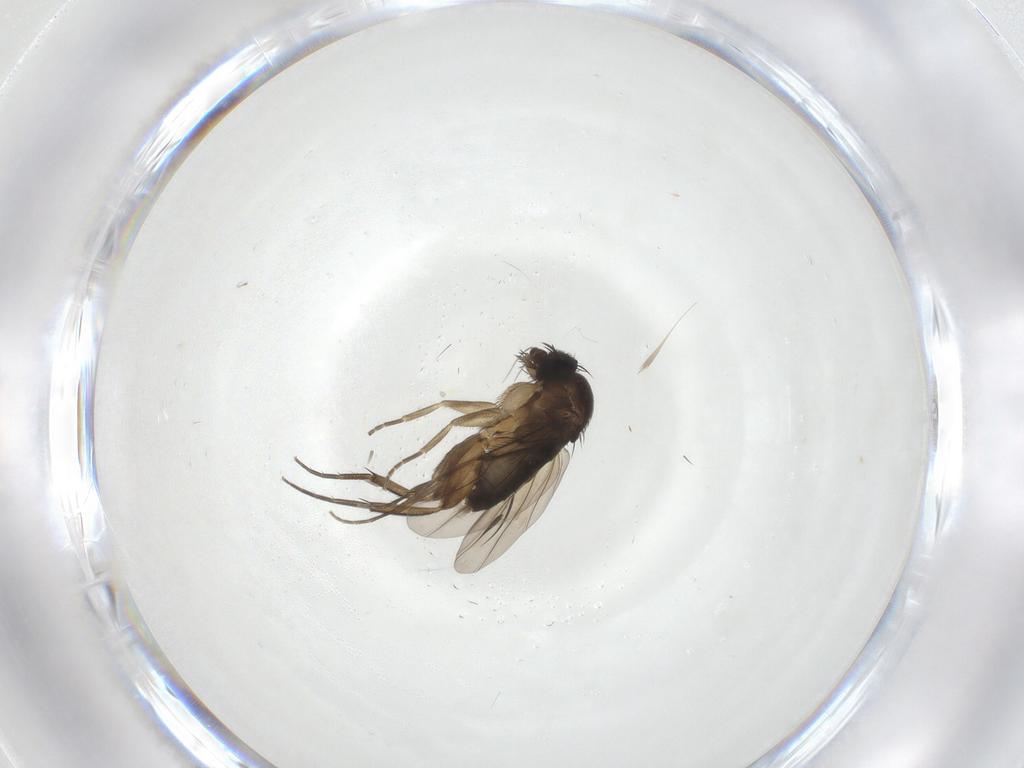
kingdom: Animalia
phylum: Arthropoda
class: Insecta
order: Diptera
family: Phoridae
